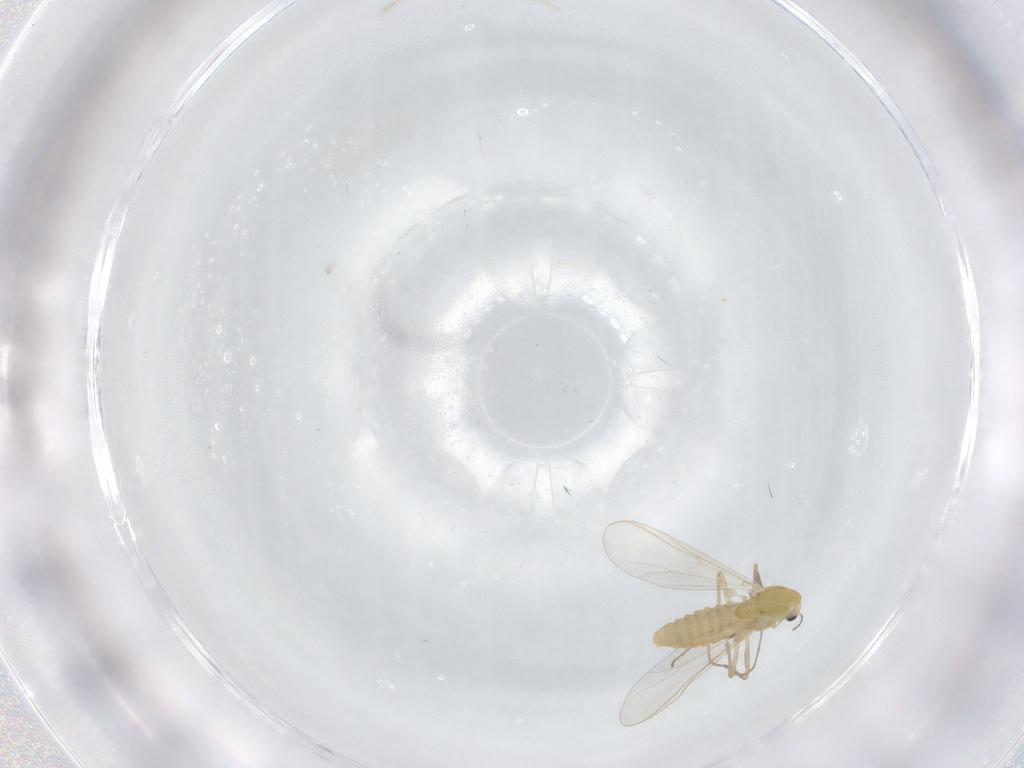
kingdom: Animalia
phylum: Arthropoda
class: Insecta
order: Diptera
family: Chironomidae
